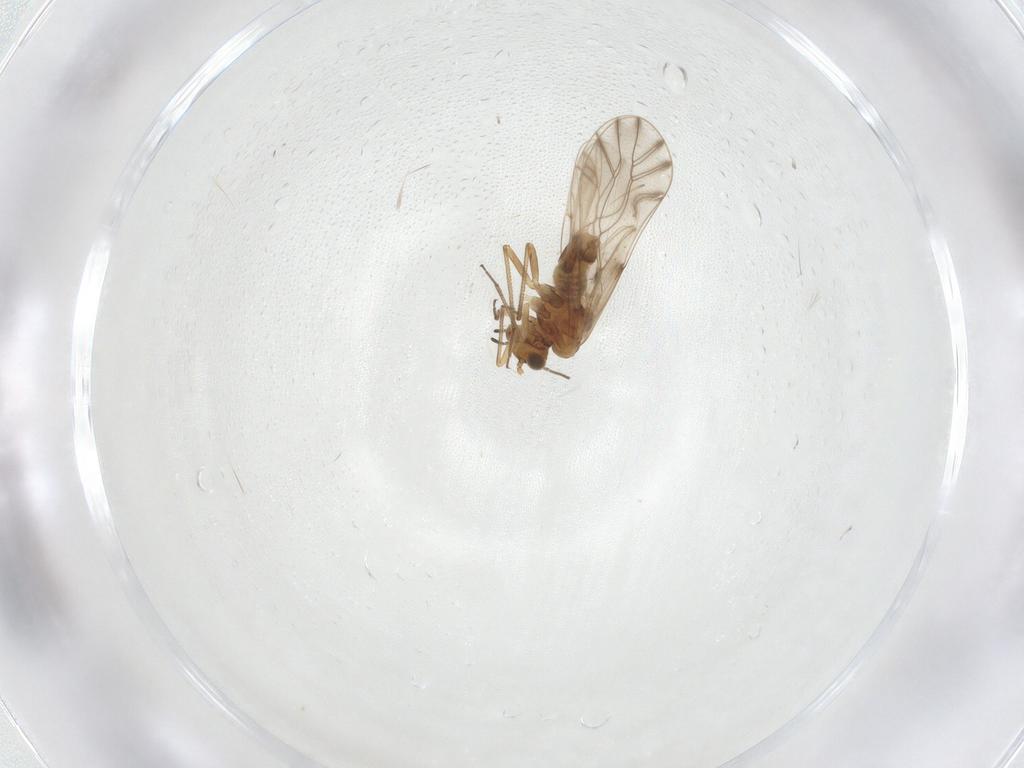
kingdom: Animalia
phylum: Arthropoda
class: Insecta
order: Psocodea
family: Lachesillidae
